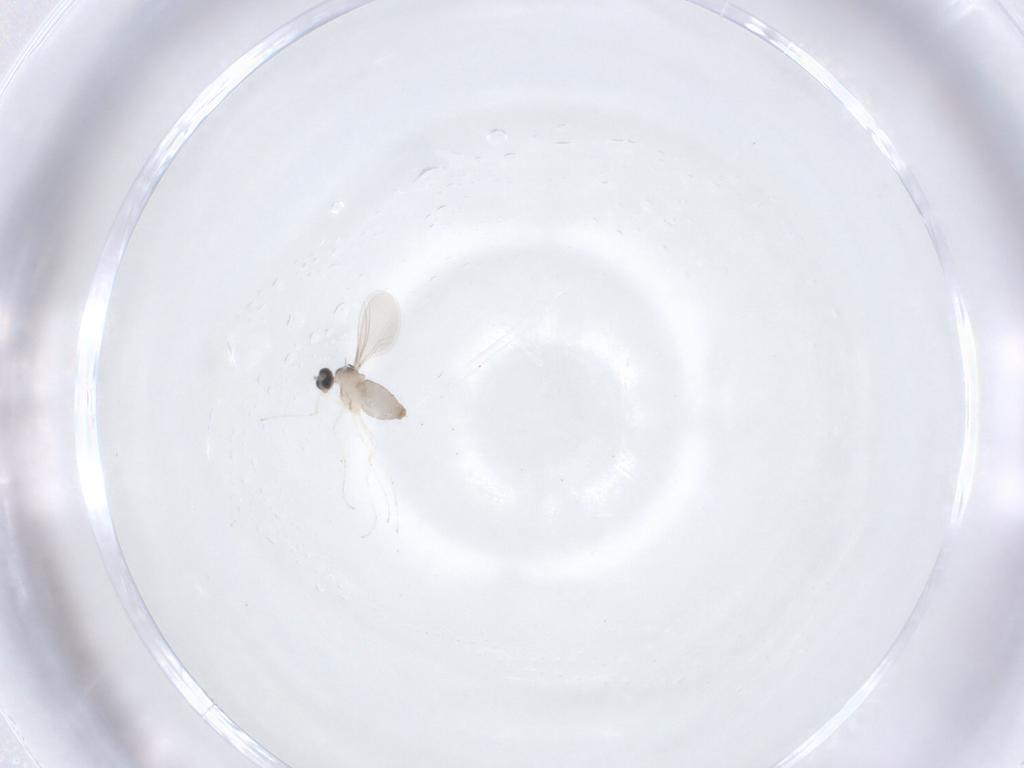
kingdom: Animalia
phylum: Arthropoda
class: Insecta
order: Diptera
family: Cecidomyiidae
